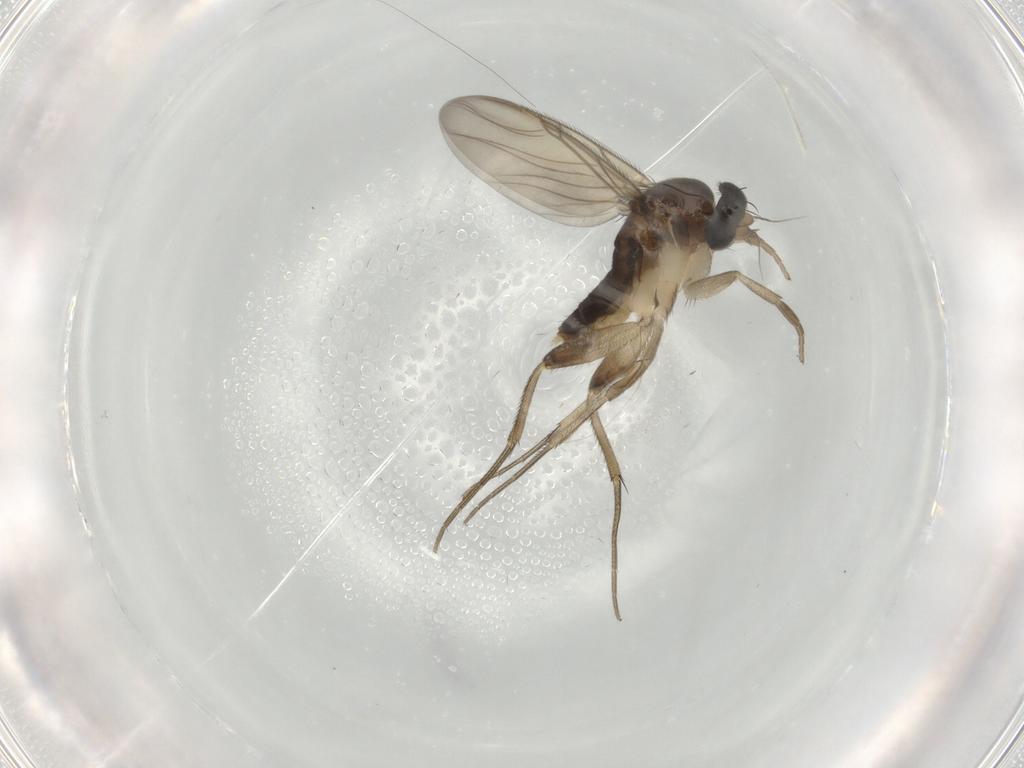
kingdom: Animalia
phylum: Arthropoda
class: Insecta
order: Diptera
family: Phoridae
